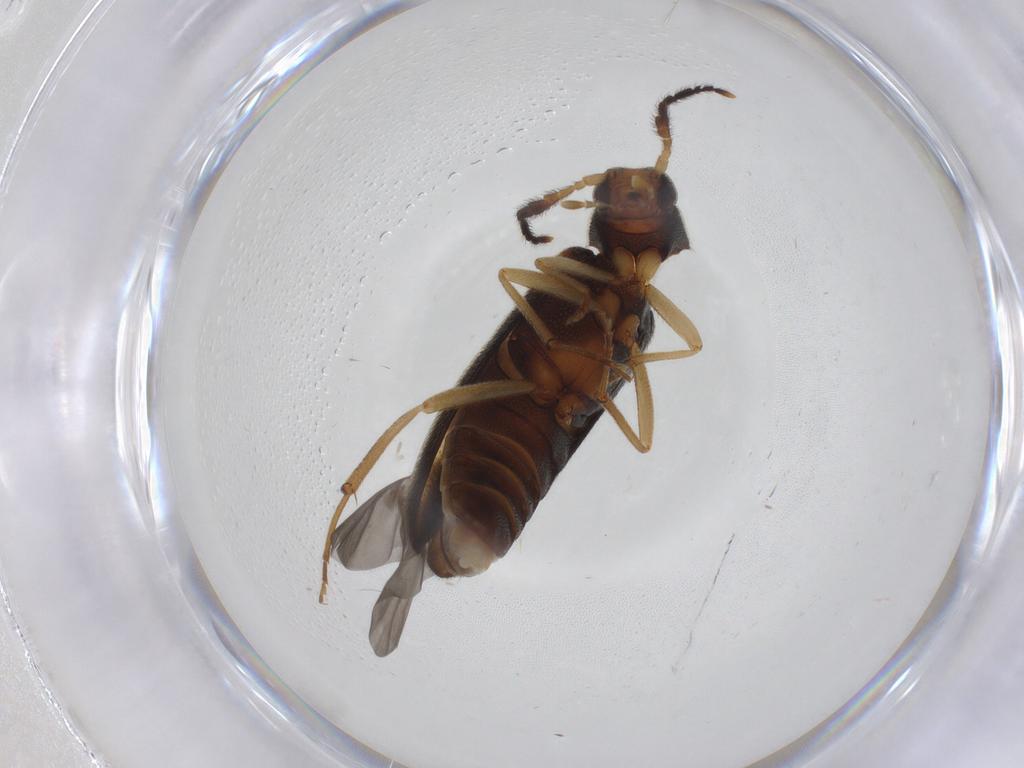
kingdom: Animalia
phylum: Arthropoda
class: Insecta
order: Coleoptera
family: Melandryidae
